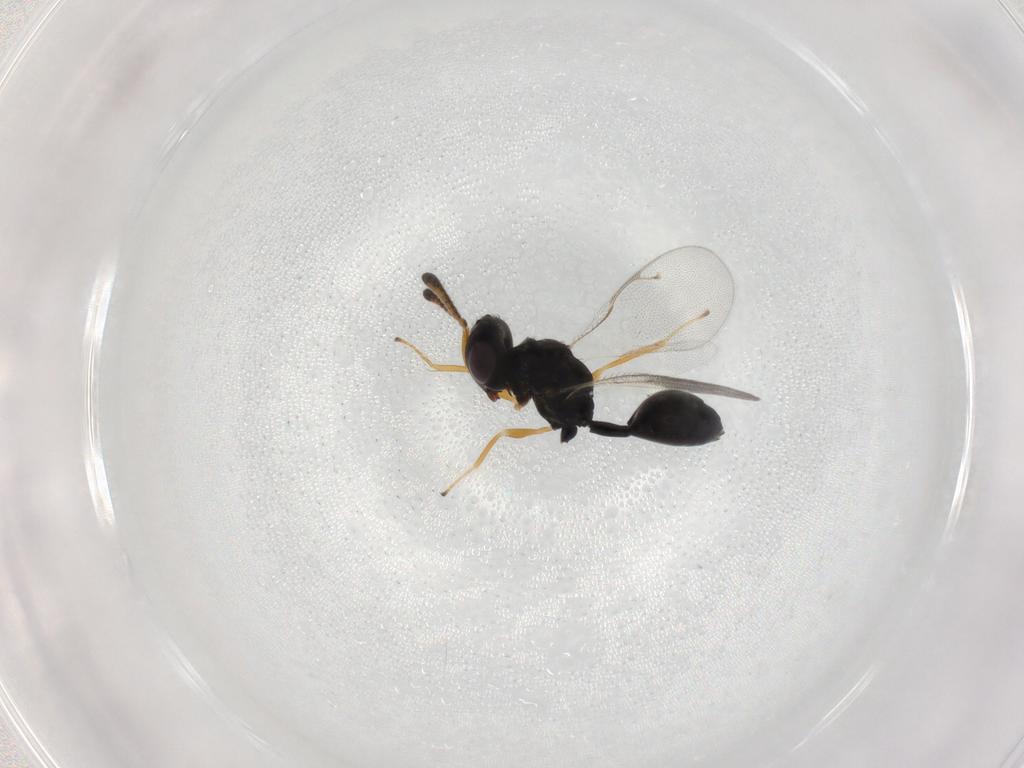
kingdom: Animalia
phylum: Arthropoda
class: Insecta
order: Hymenoptera
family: Pteromalidae
